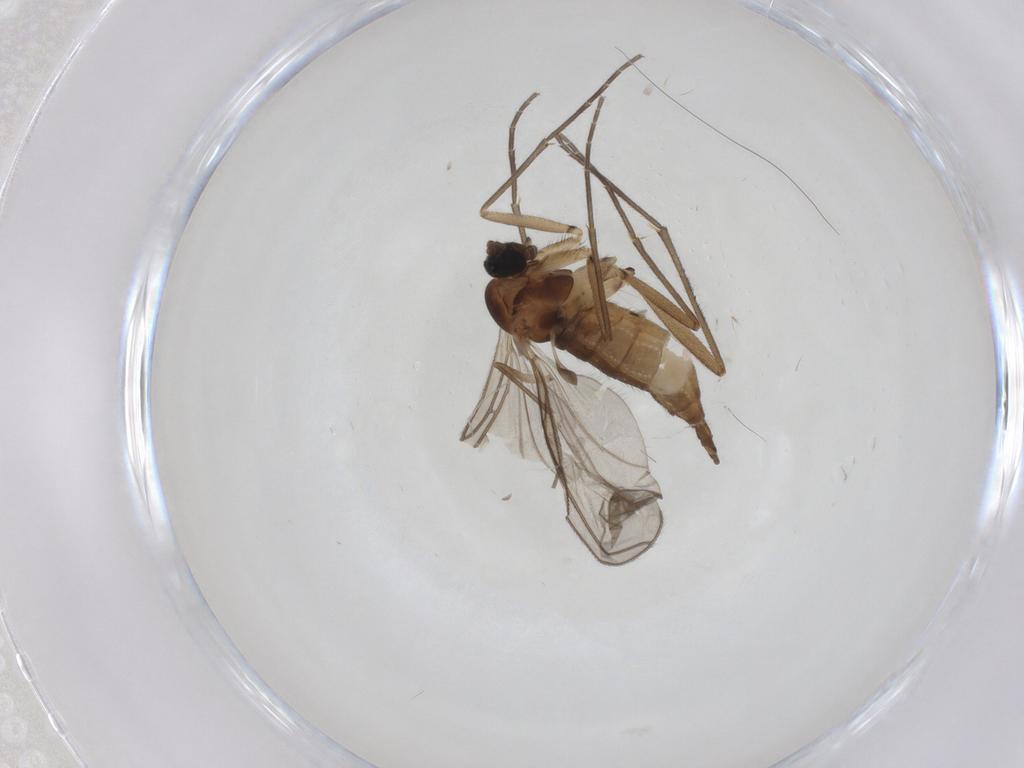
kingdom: Animalia
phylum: Arthropoda
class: Insecta
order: Diptera
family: Sciaridae
